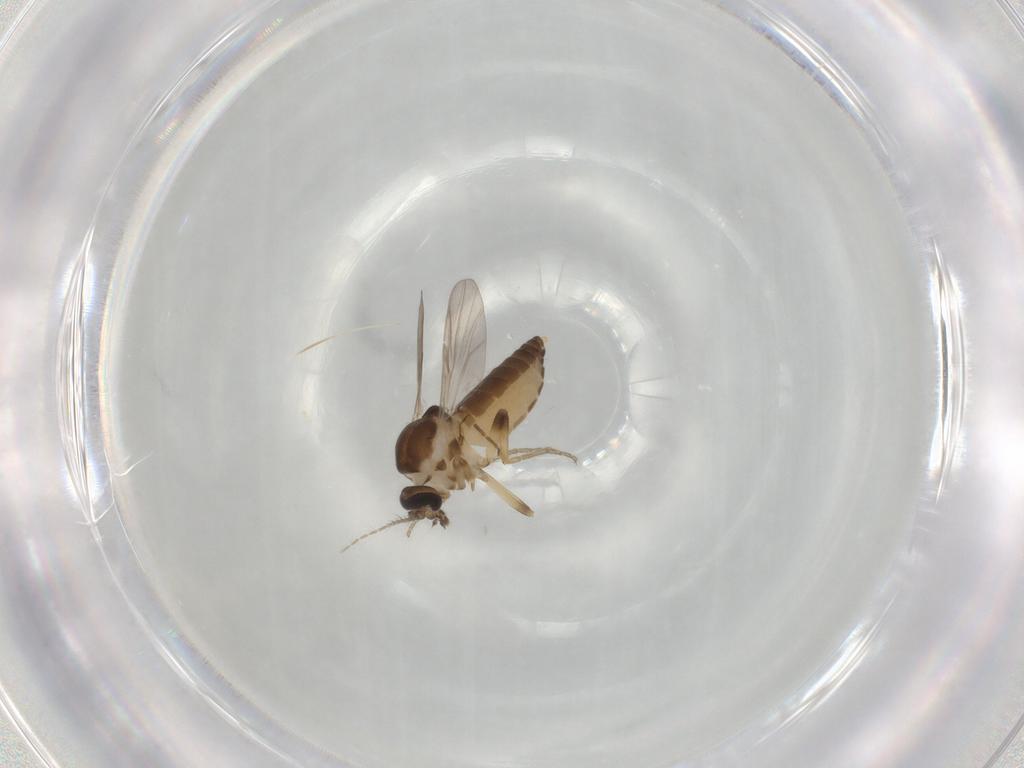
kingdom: Animalia
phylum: Arthropoda
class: Insecta
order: Diptera
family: Ceratopogonidae
